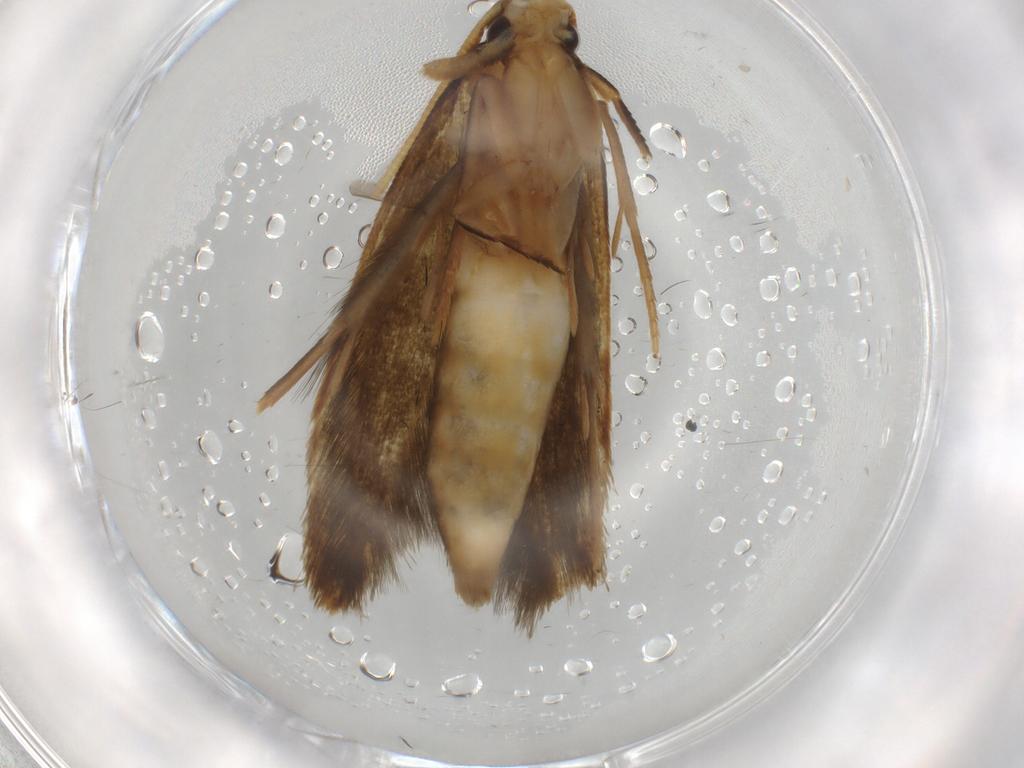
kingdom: Animalia
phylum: Arthropoda
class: Insecta
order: Lepidoptera
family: Tineidae
